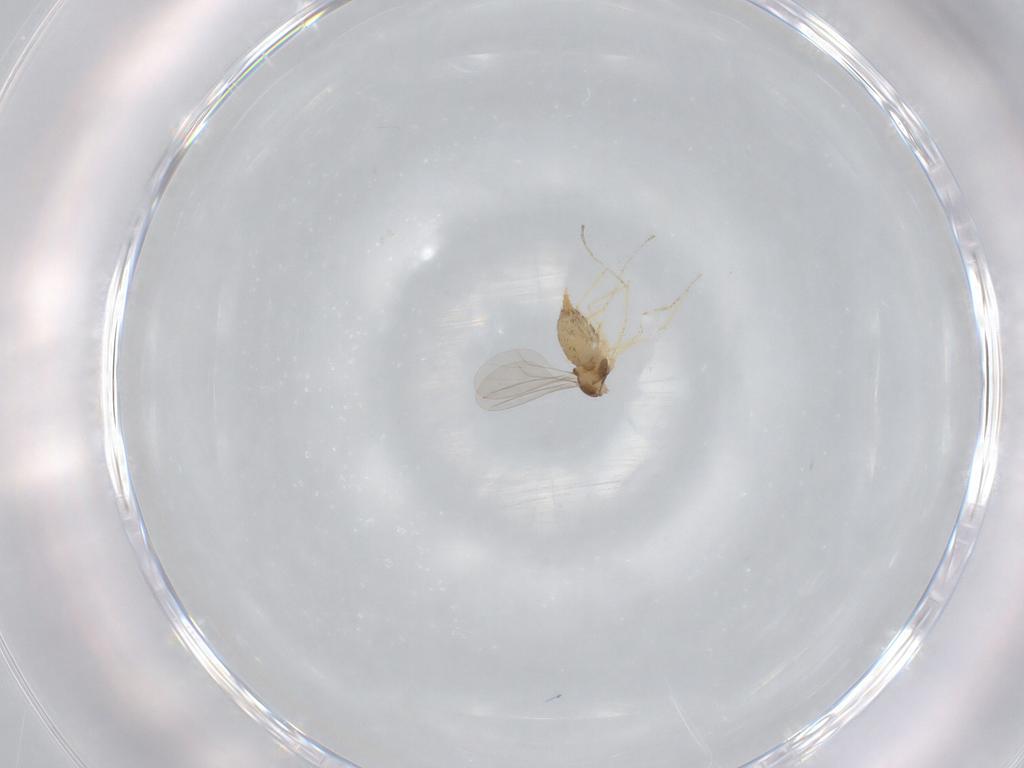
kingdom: Animalia
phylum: Arthropoda
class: Insecta
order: Diptera
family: Cecidomyiidae
